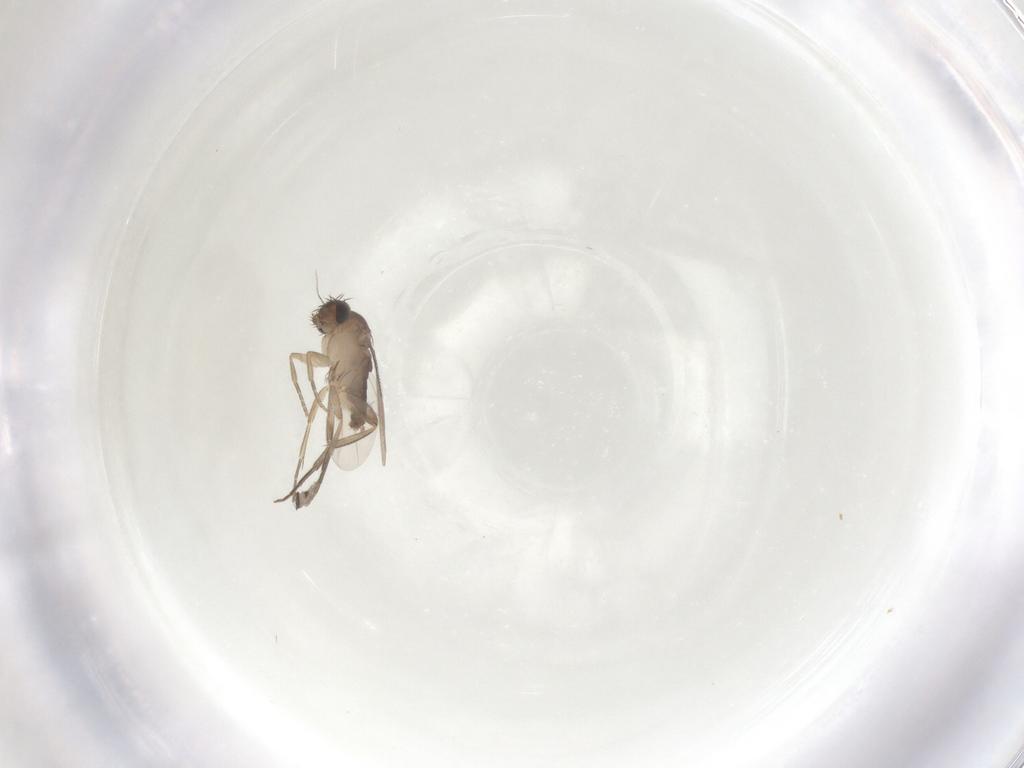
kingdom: Animalia
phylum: Arthropoda
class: Insecta
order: Diptera
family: Phoridae
